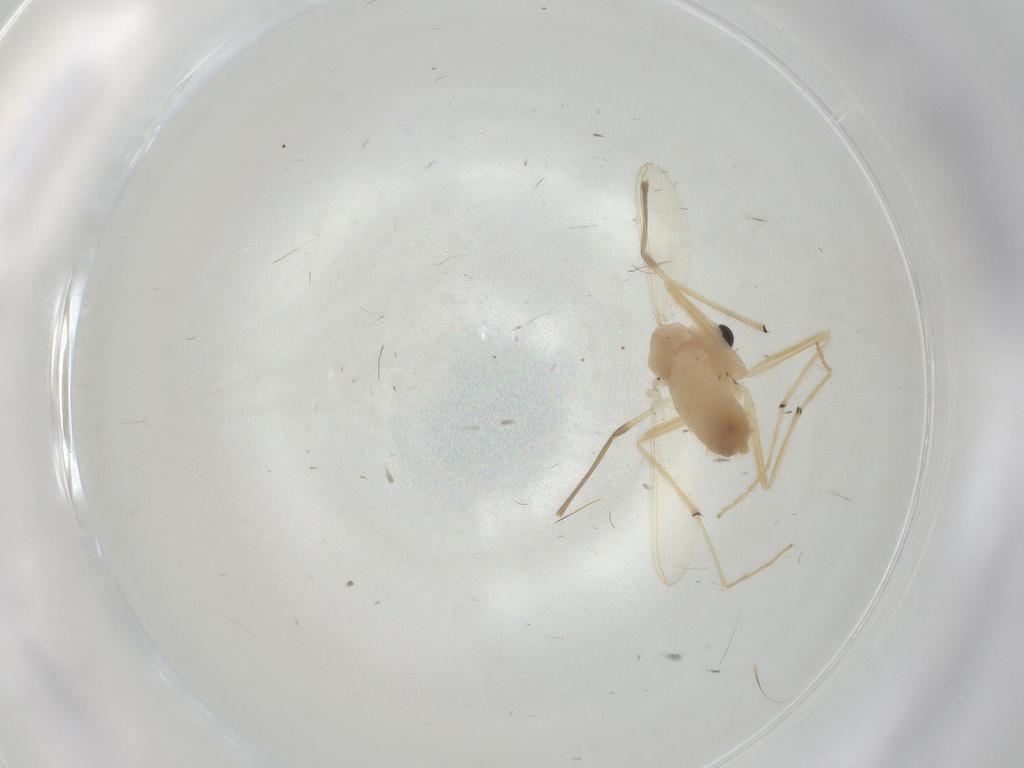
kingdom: Animalia
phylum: Arthropoda
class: Insecta
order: Diptera
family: Chironomidae
